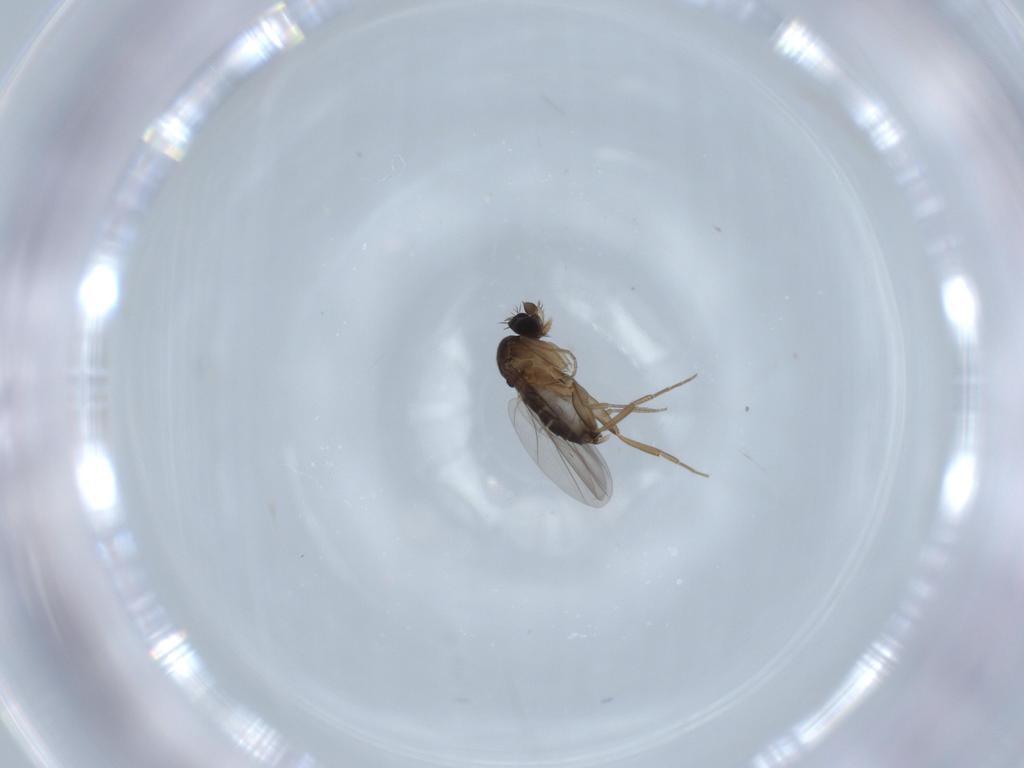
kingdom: Animalia
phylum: Arthropoda
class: Insecta
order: Diptera
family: Phoridae
